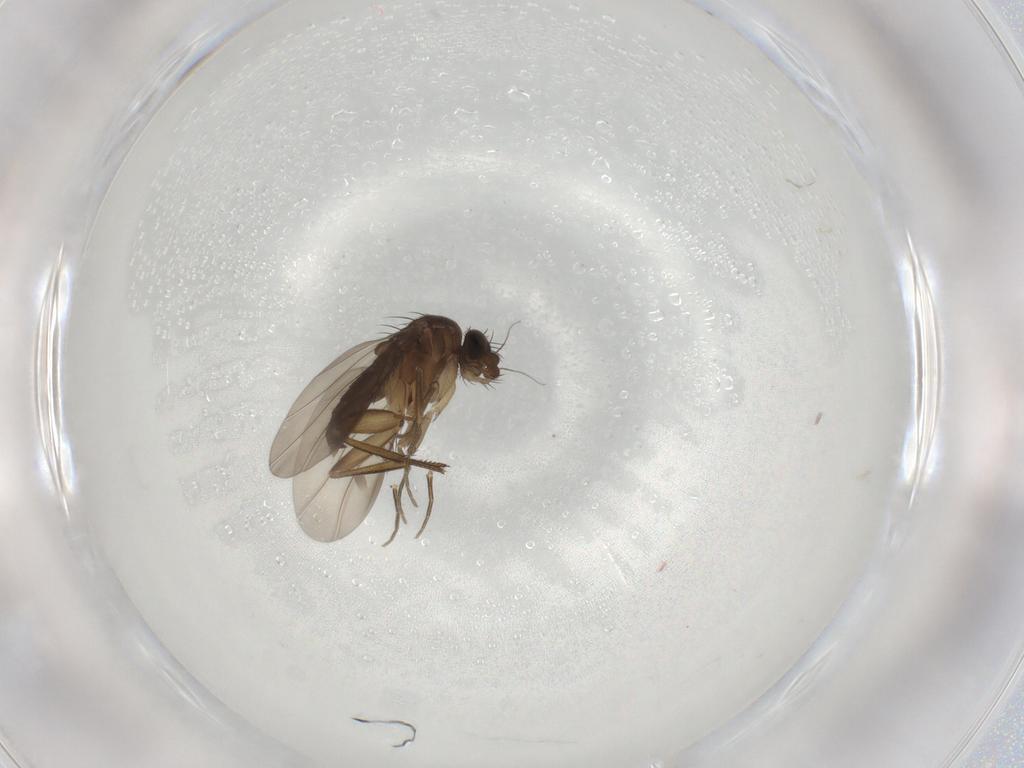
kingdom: Animalia
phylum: Arthropoda
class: Insecta
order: Diptera
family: Phoridae
